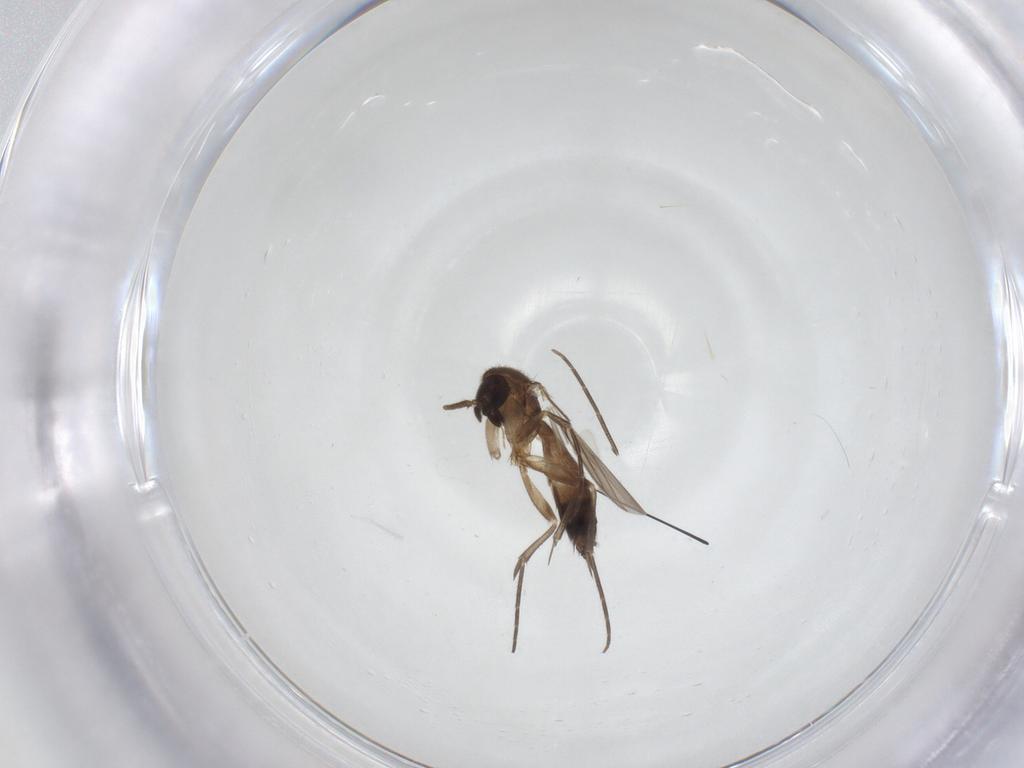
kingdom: Animalia
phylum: Arthropoda
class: Insecta
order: Diptera
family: Mycetophilidae
